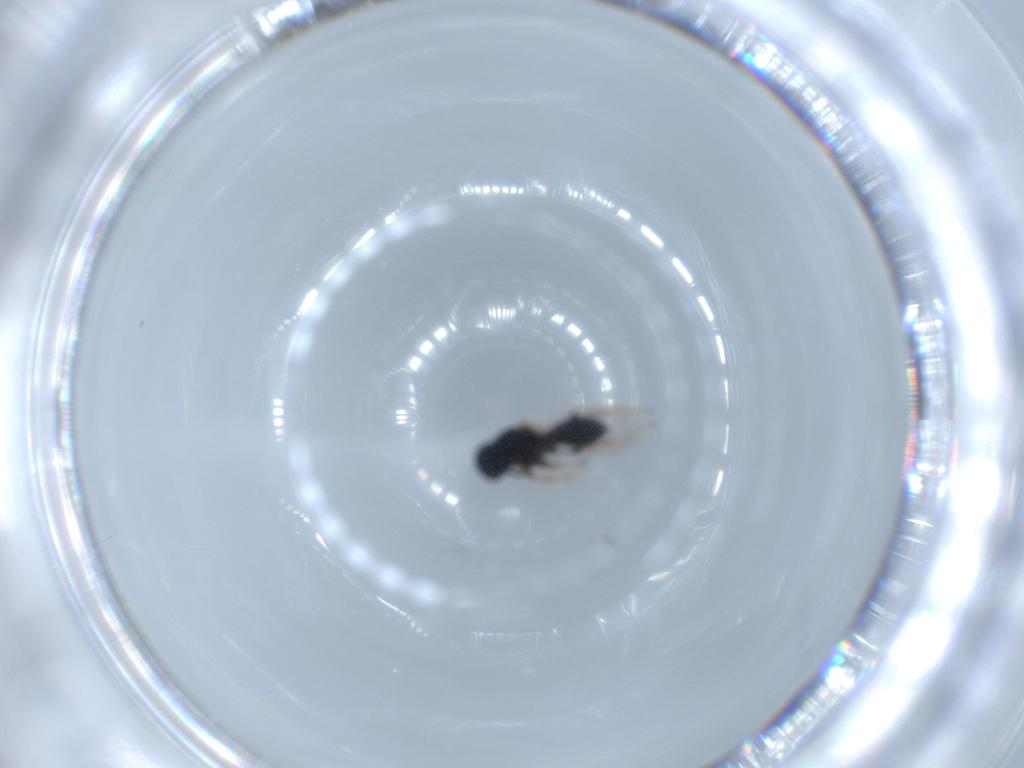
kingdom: Animalia
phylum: Arthropoda
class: Insecta
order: Hymenoptera
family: Platygastridae
